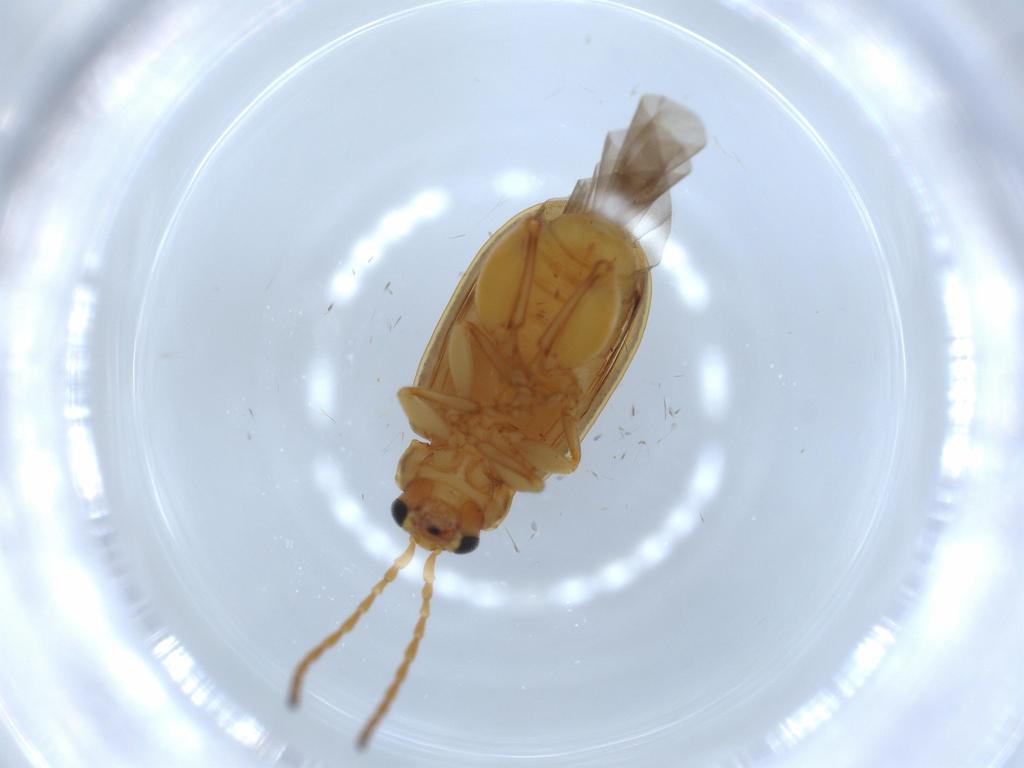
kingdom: Animalia
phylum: Arthropoda
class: Insecta
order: Coleoptera
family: Chrysomelidae
